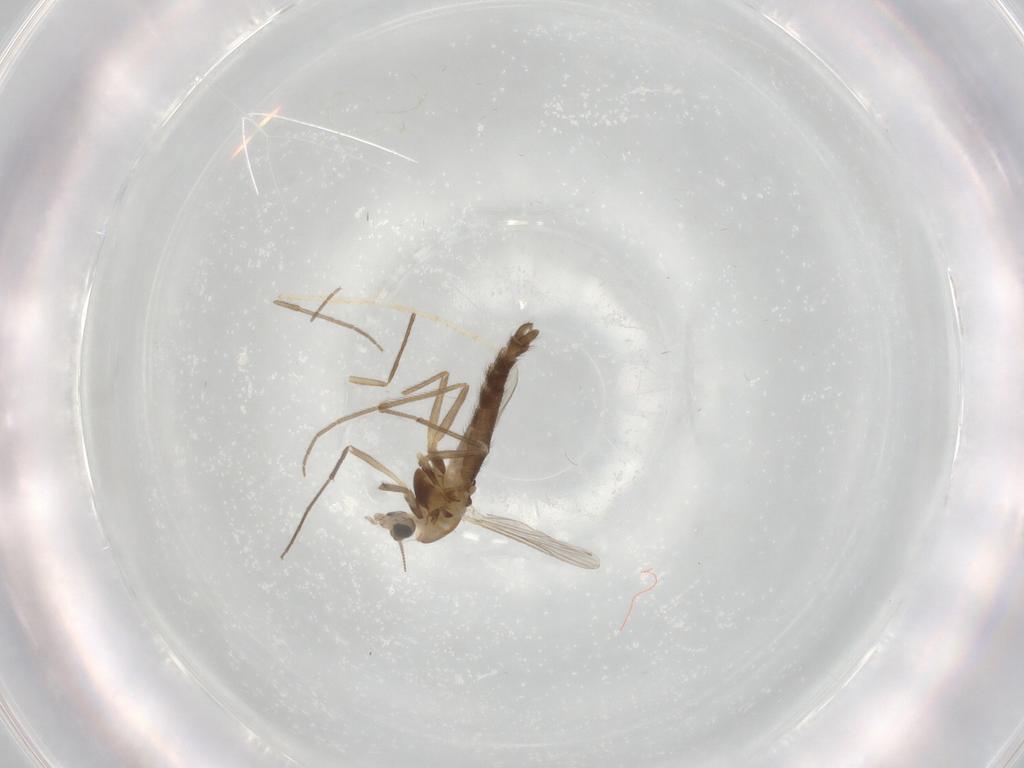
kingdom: Animalia
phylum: Arthropoda
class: Insecta
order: Diptera
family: Chironomidae
